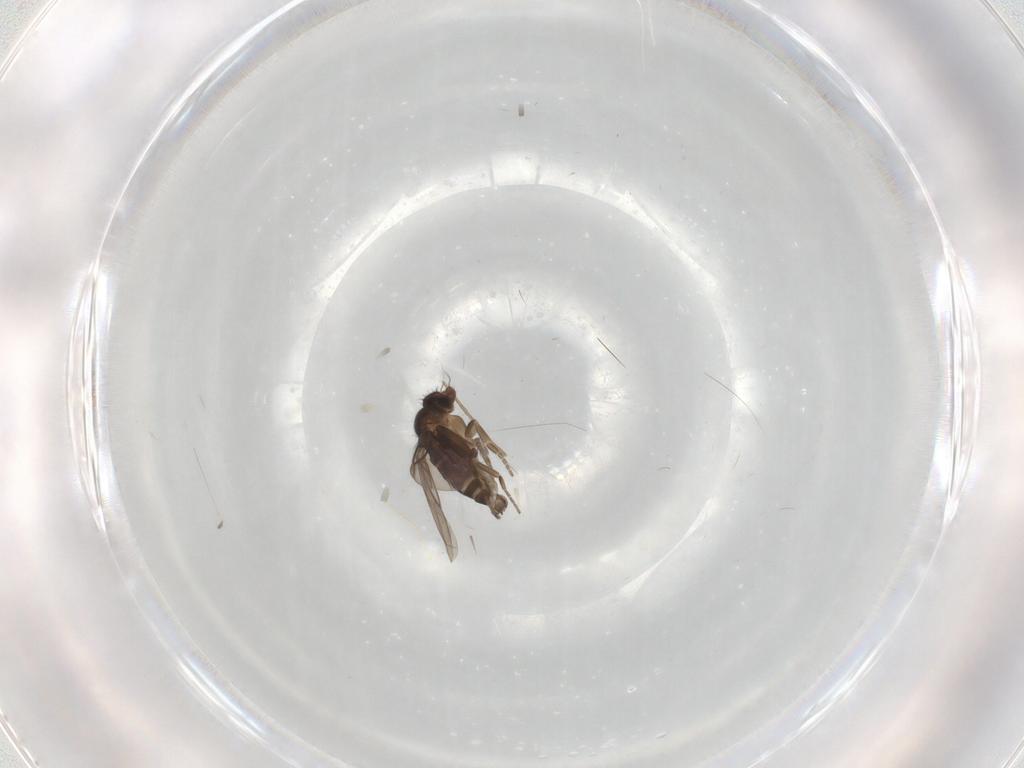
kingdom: Animalia
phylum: Arthropoda
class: Insecta
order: Diptera
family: Phoridae
